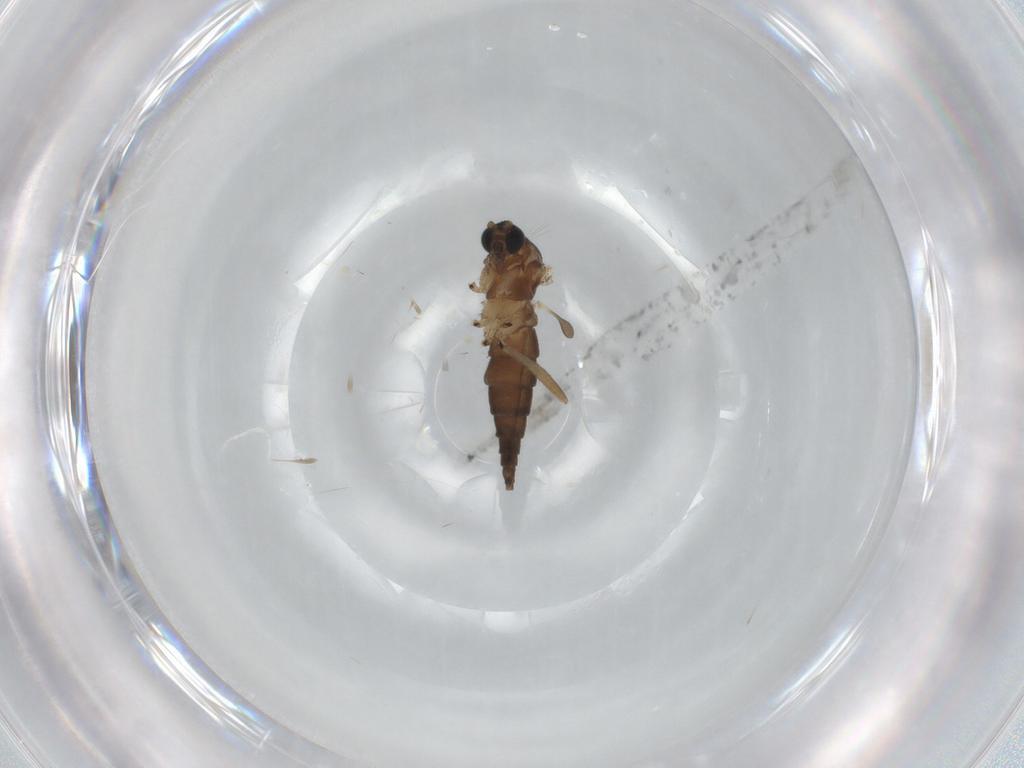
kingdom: Animalia
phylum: Arthropoda
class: Insecta
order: Diptera
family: Sciaridae
